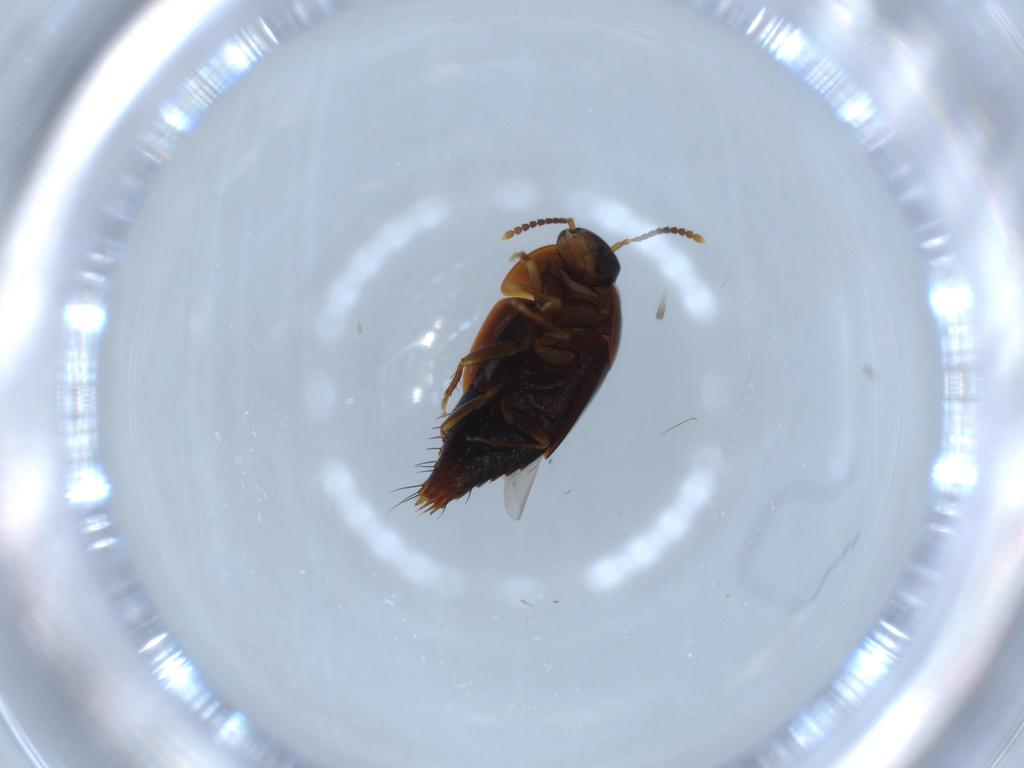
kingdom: Animalia
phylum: Arthropoda
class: Insecta
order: Coleoptera
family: Staphylinidae
